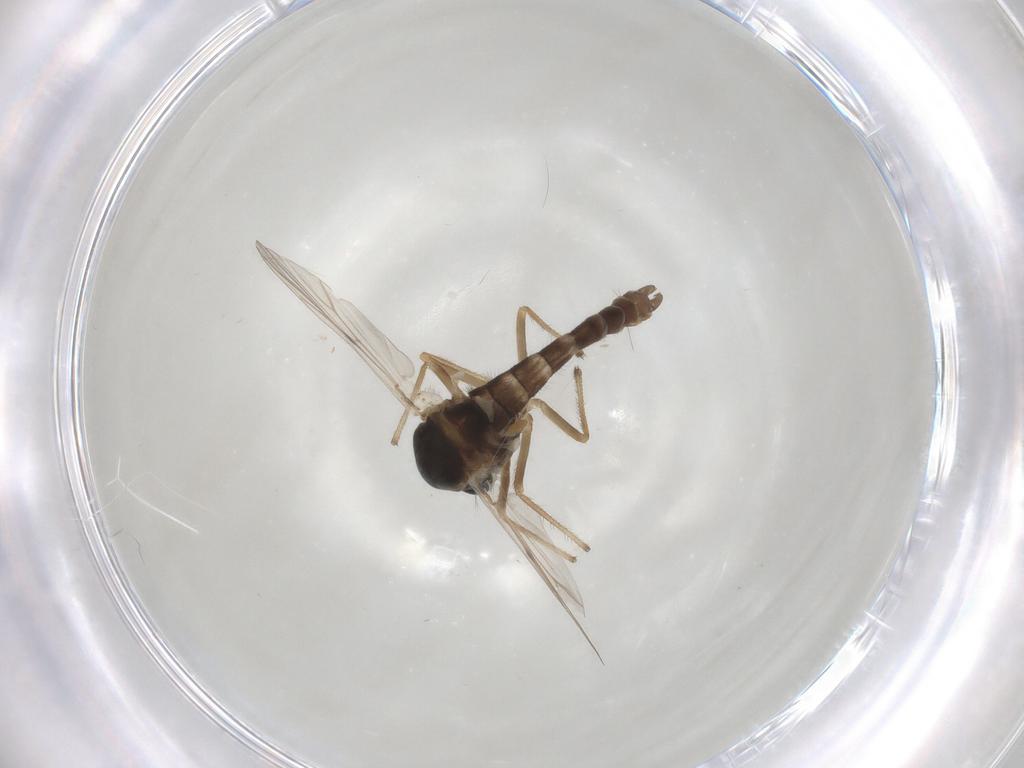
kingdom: Animalia
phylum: Arthropoda
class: Insecta
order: Diptera
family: Chironomidae
